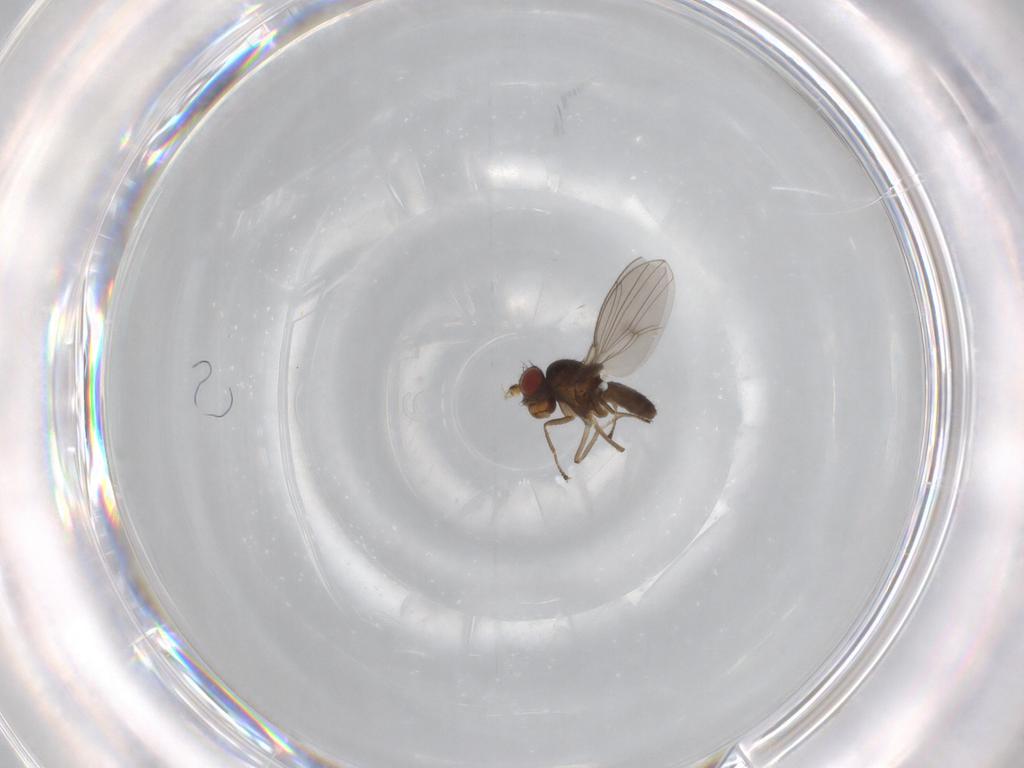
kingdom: Animalia
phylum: Arthropoda
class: Insecta
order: Diptera
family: Ephydridae
